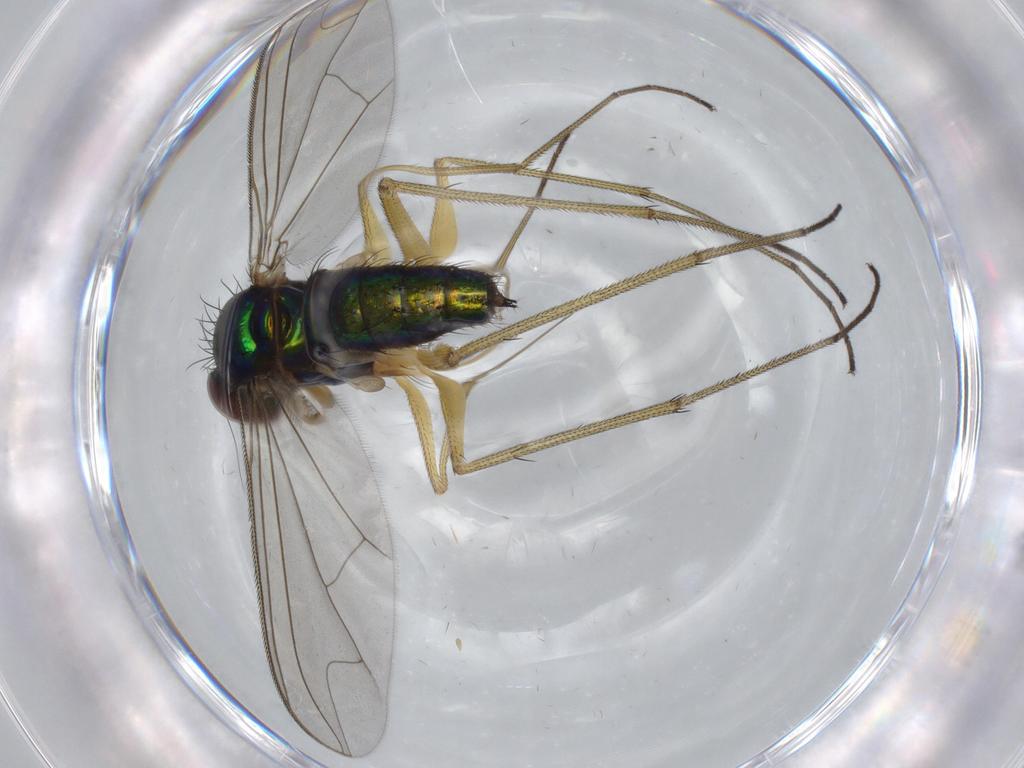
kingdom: Animalia
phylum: Arthropoda
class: Insecta
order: Diptera
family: Dolichopodidae
